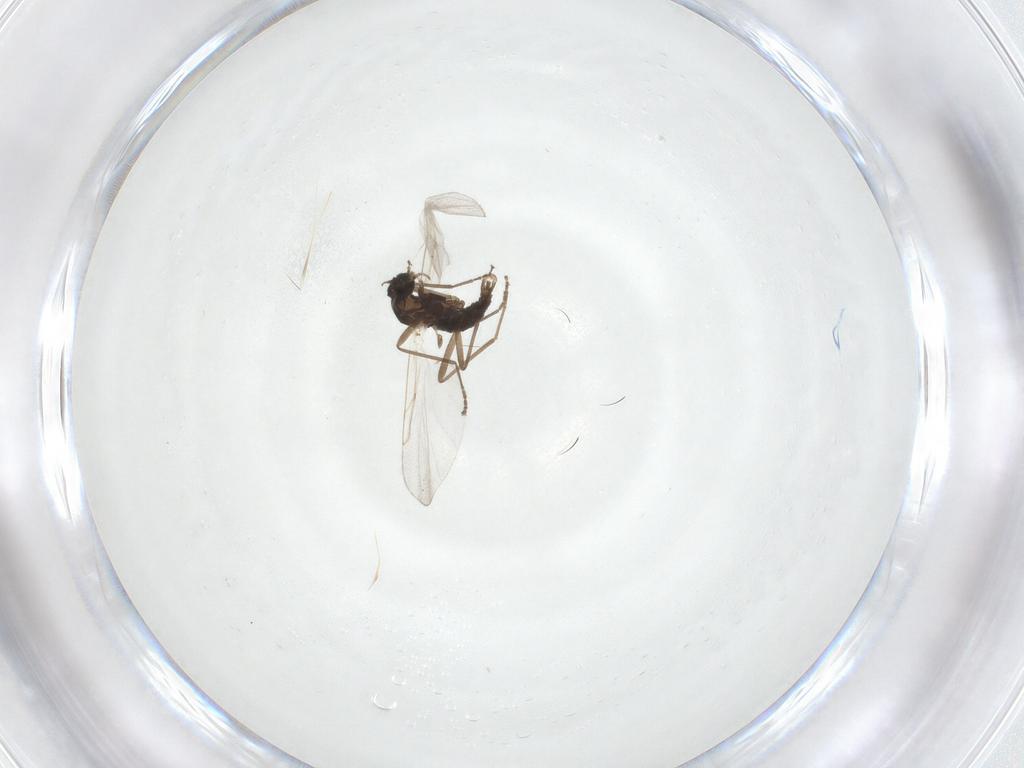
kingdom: Animalia
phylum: Arthropoda
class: Insecta
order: Diptera
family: Cecidomyiidae
